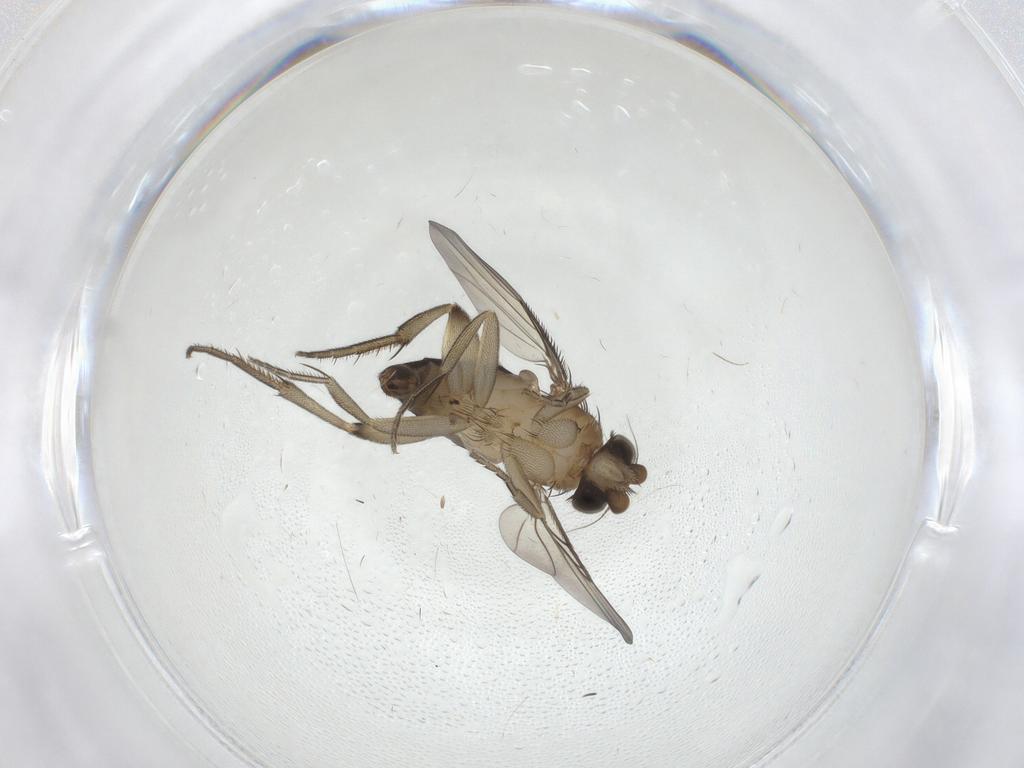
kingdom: Animalia
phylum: Arthropoda
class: Insecta
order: Diptera
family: Phoridae
